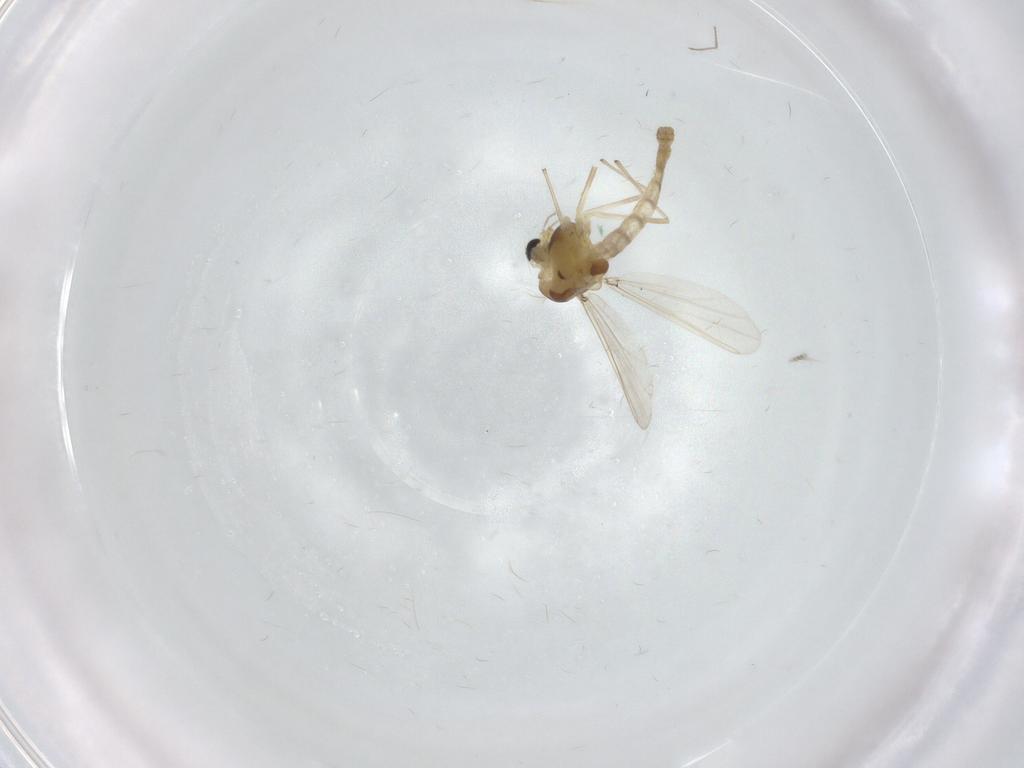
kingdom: Animalia
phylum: Arthropoda
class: Insecta
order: Diptera
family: Chironomidae
